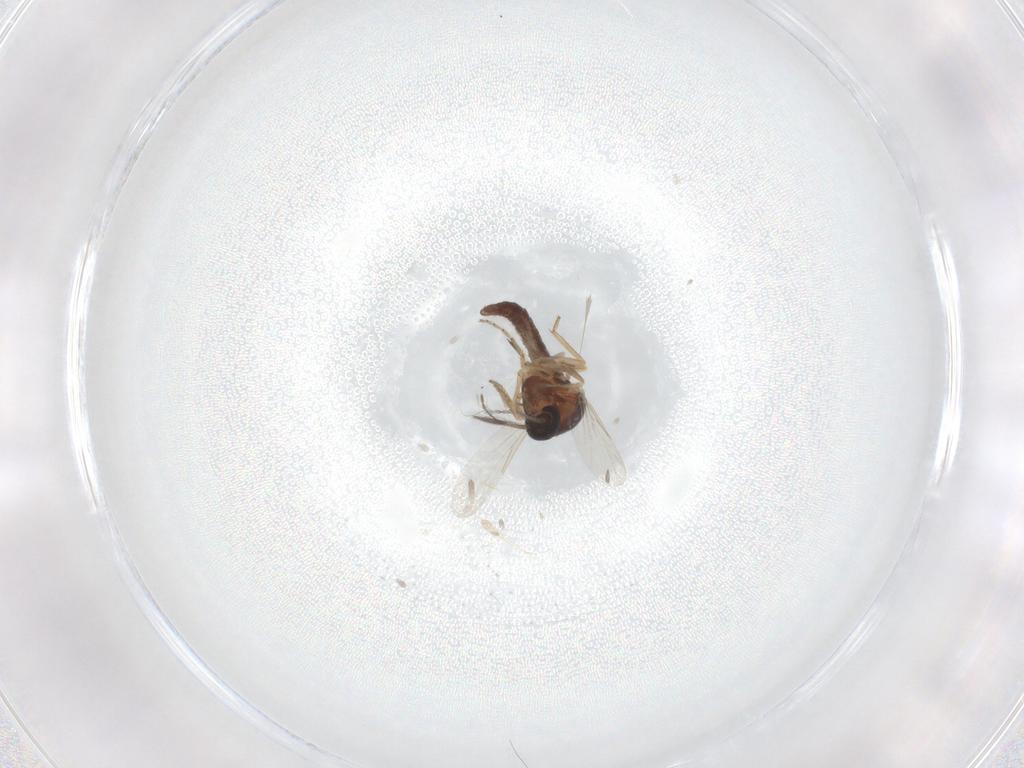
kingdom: Animalia
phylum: Arthropoda
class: Insecta
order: Diptera
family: Ceratopogonidae
